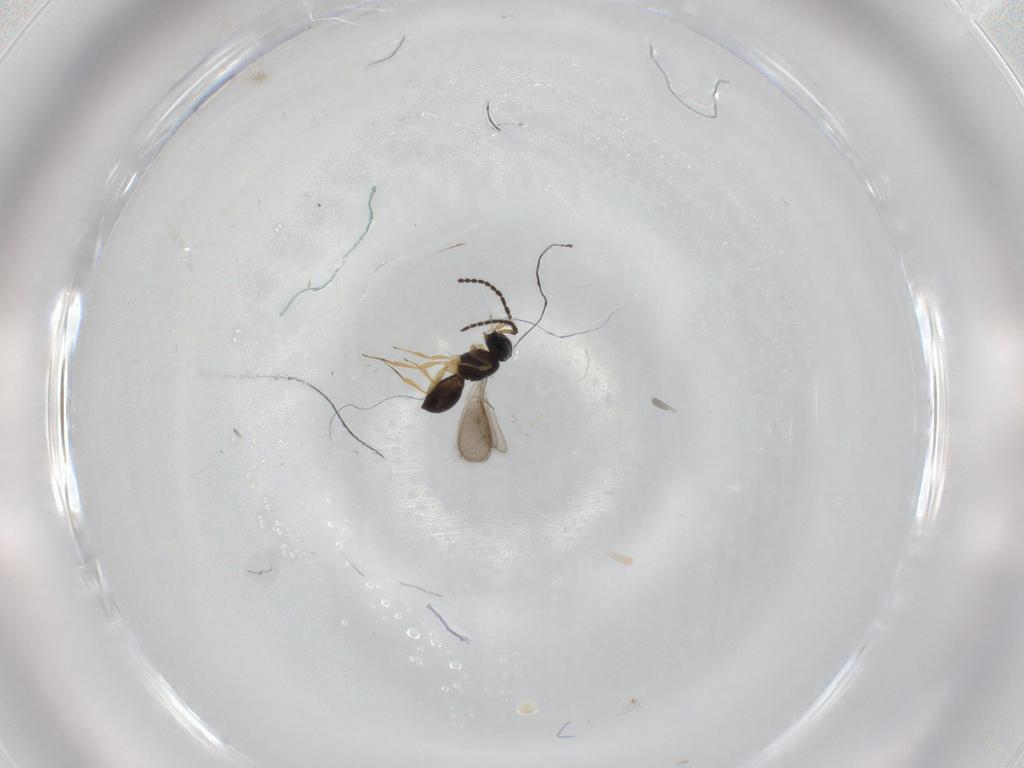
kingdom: Animalia
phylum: Arthropoda
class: Insecta
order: Hymenoptera
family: Scelionidae
